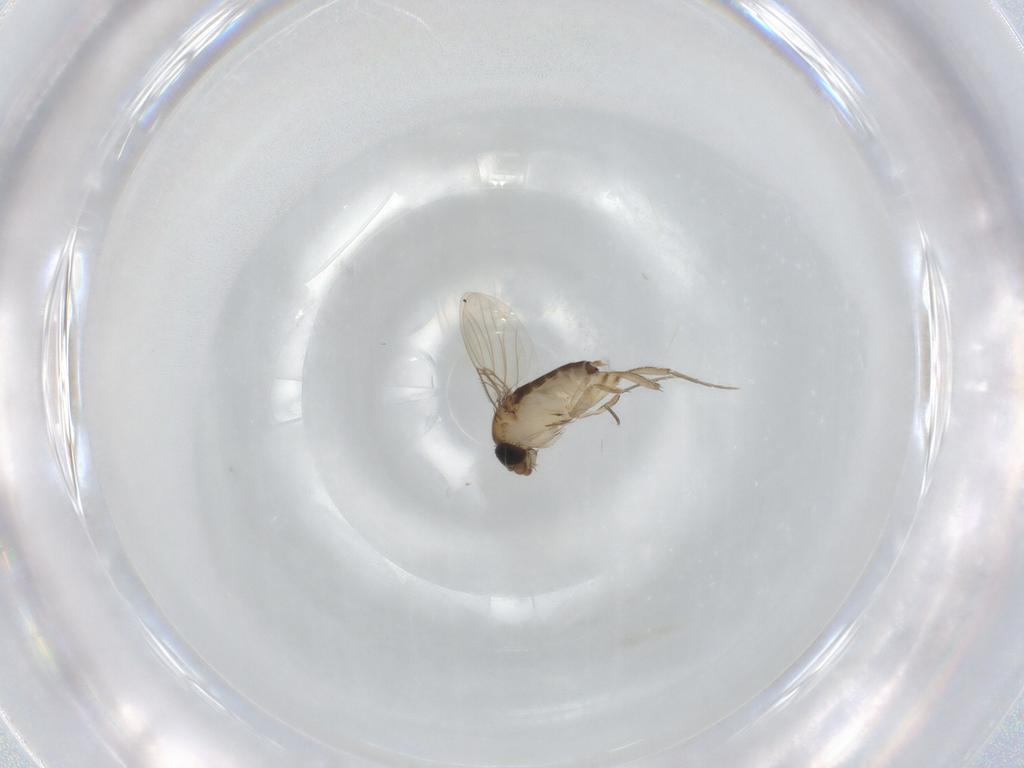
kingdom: Animalia
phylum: Arthropoda
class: Insecta
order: Diptera
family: Phoridae
